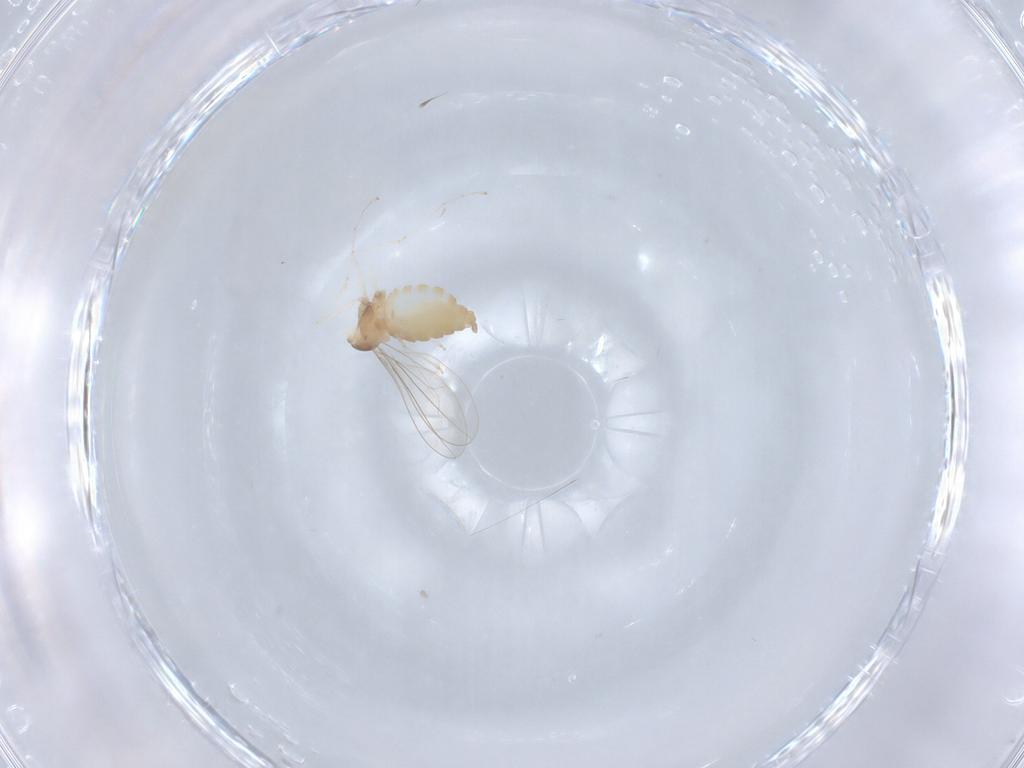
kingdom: Animalia
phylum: Arthropoda
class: Insecta
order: Diptera
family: Cecidomyiidae
